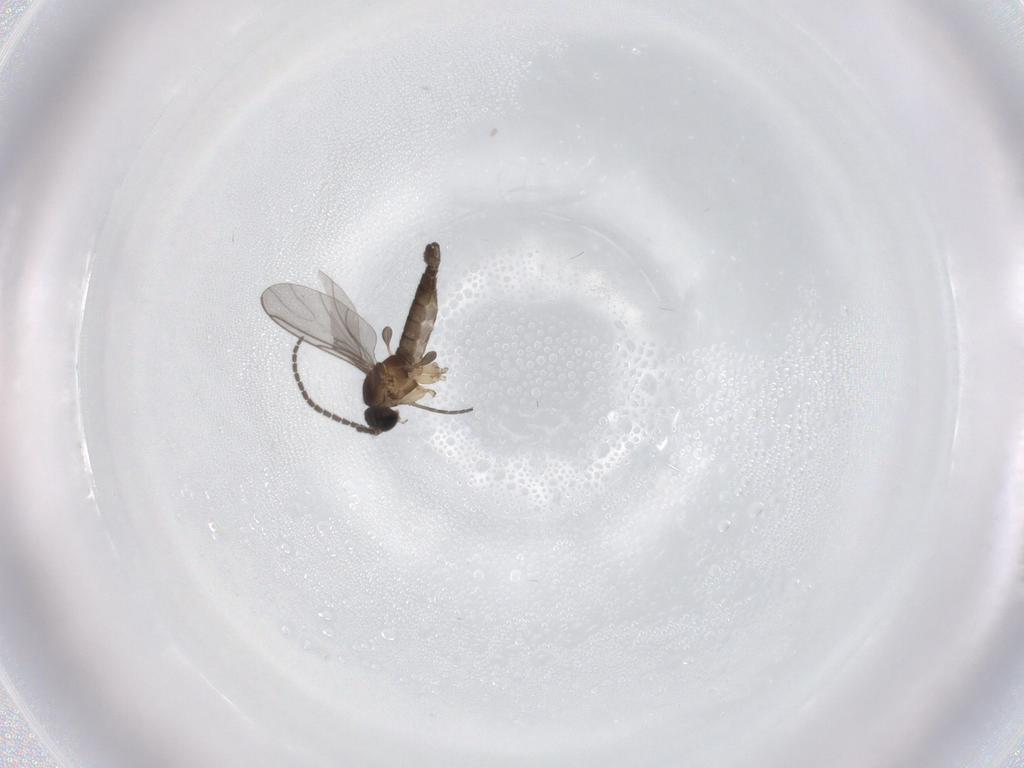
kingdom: Animalia
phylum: Arthropoda
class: Insecta
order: Diptera
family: Sciaridae
